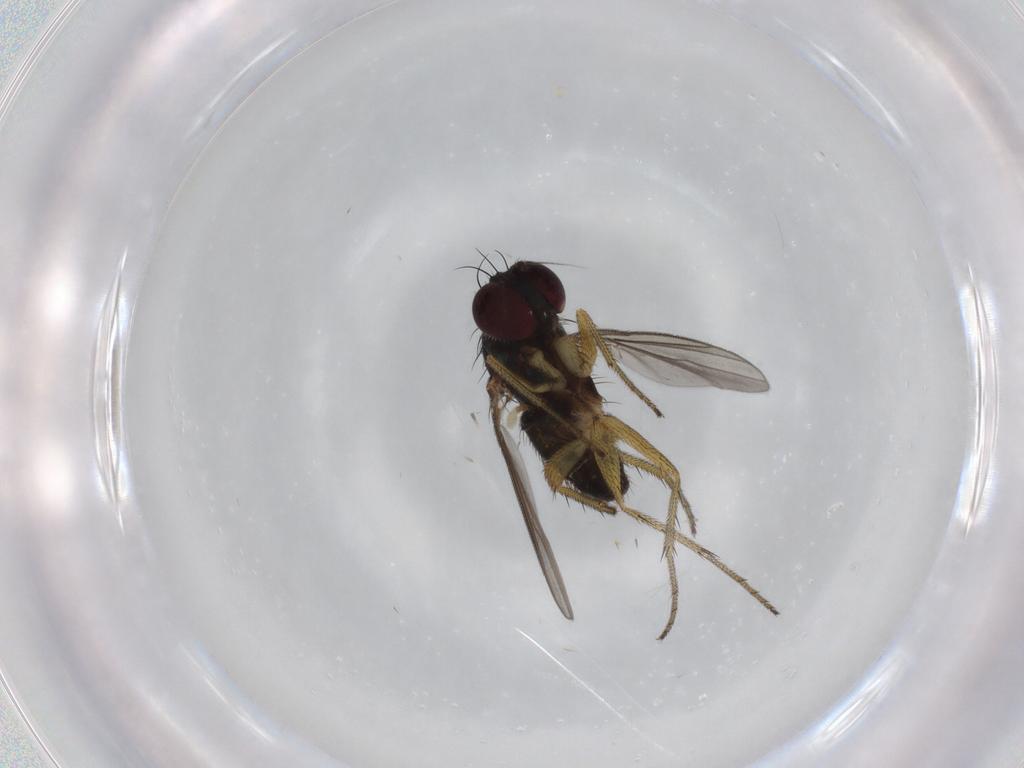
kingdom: Animalia
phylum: Arthropoda
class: Insecta
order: Diptera
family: Dolichopodidae
